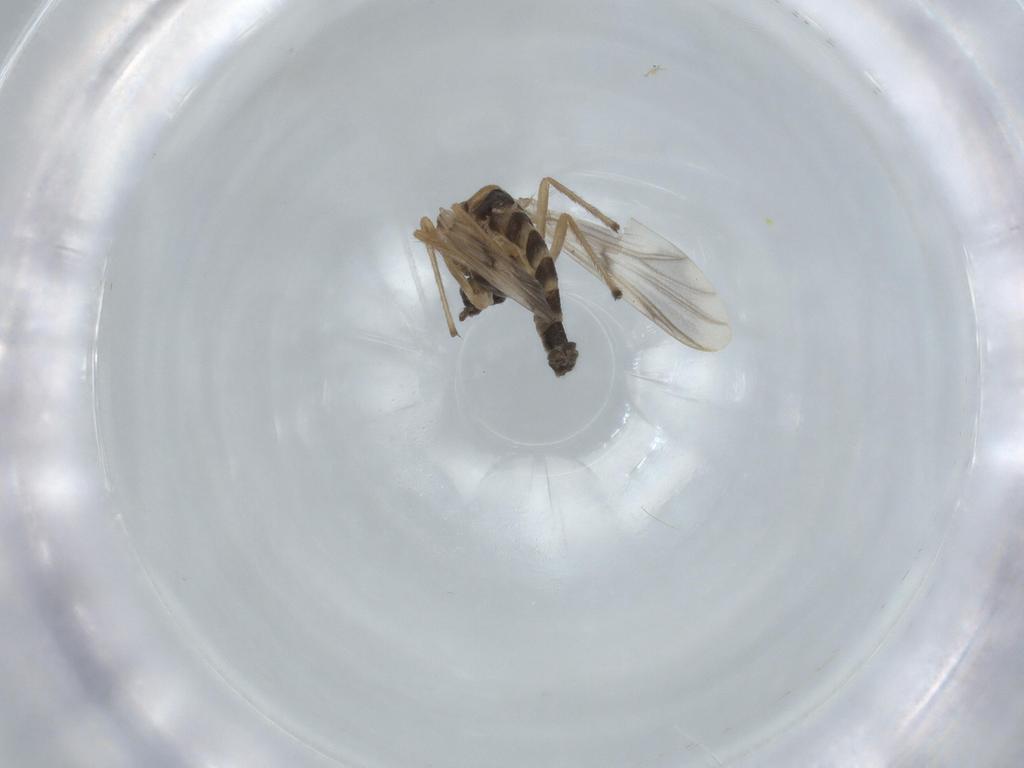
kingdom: Animalia
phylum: Arthropoda
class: Insecta
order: Diptera
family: Chironomidae
